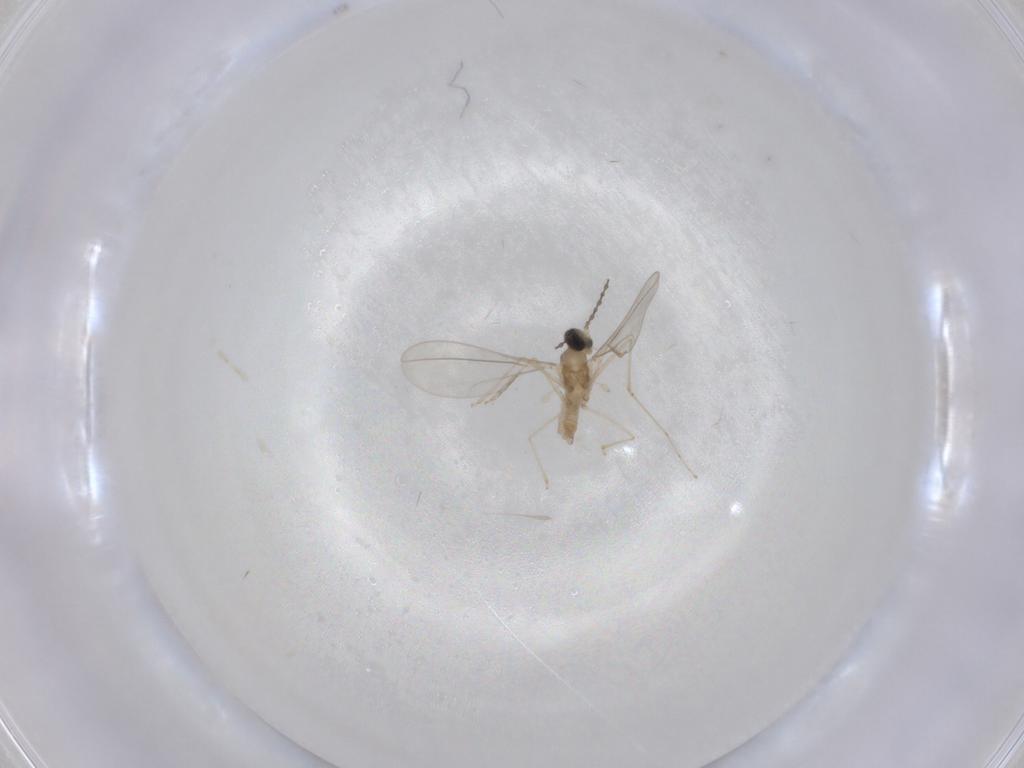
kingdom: Animalia
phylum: Arthropoda
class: Insecta
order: Diptera
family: Cecidomyiidae
